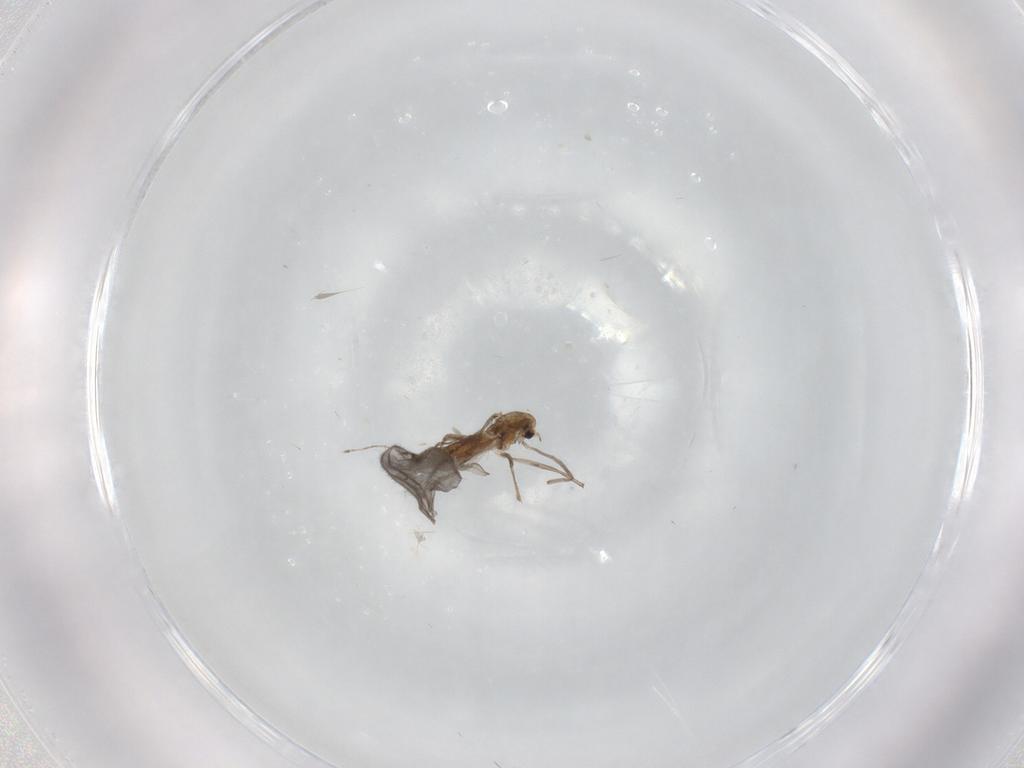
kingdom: Animalia
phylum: Arthropoda
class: Insecta
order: Diptera
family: Chironomidae
